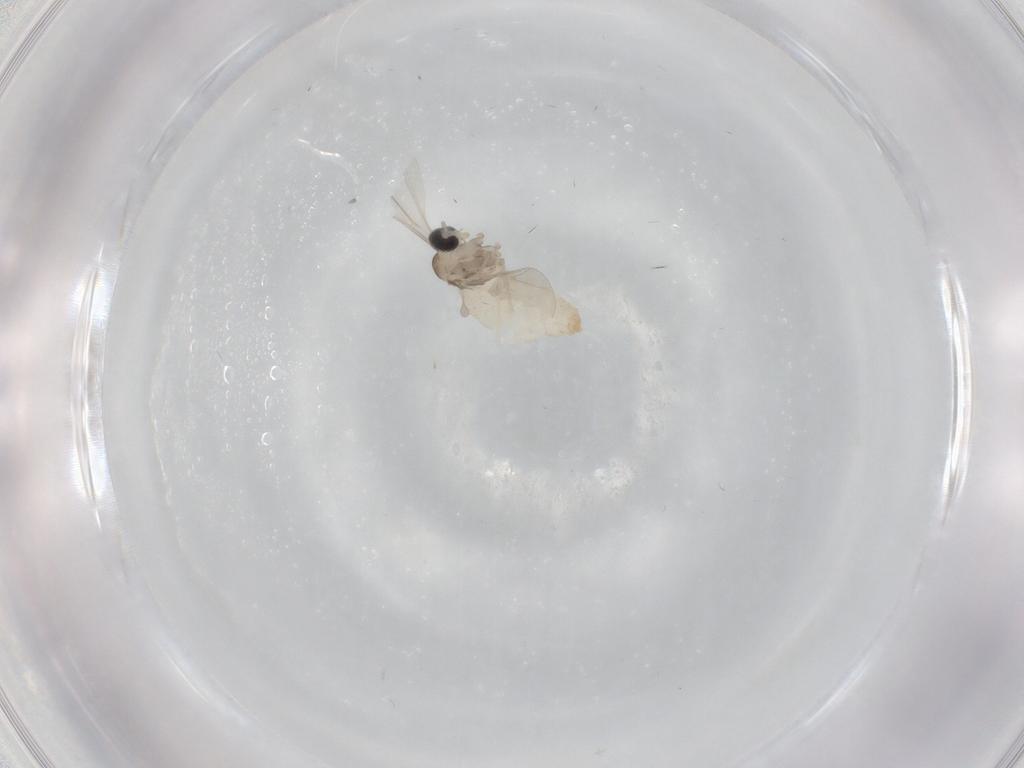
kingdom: Animalia
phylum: Arthropoda
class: Insecta
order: Diptera
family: Cecidomyiidae
